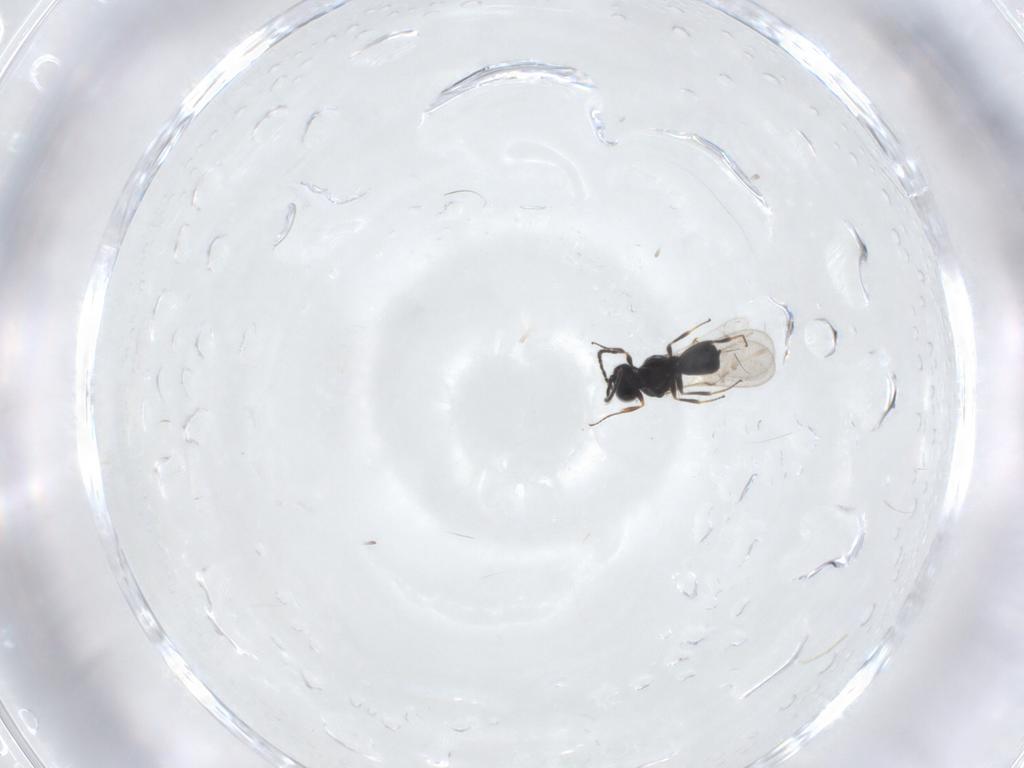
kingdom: Animalia
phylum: Arthropoda
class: Insecta
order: Hymenoptera
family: Scelionidae
